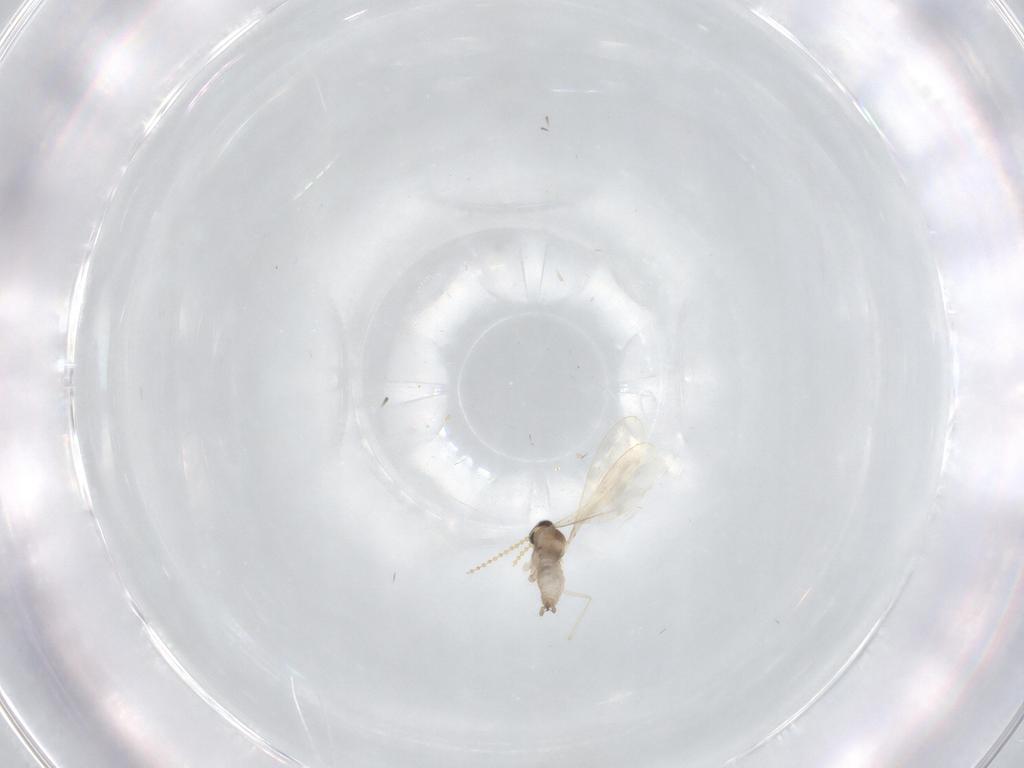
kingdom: Animalia
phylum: Arthropoda
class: Insecta
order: Diptera
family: Cecidomyiidae
